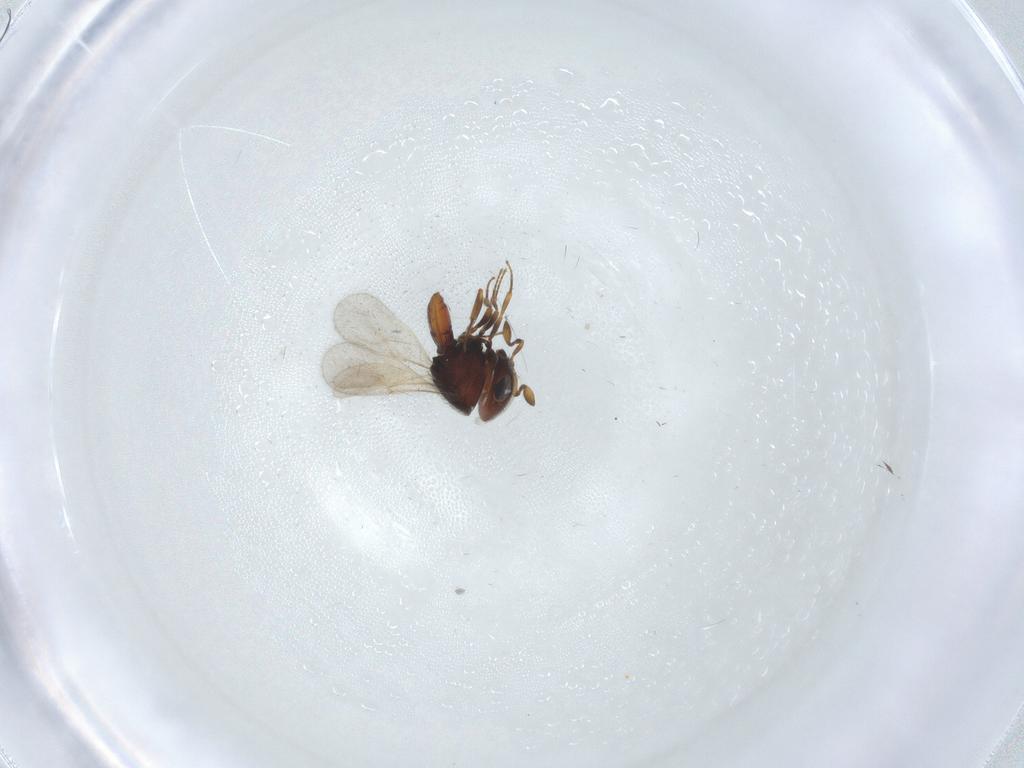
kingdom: Animalia
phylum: Arthropoda
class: Insecta
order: Hymenoptera
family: Scelionidae
